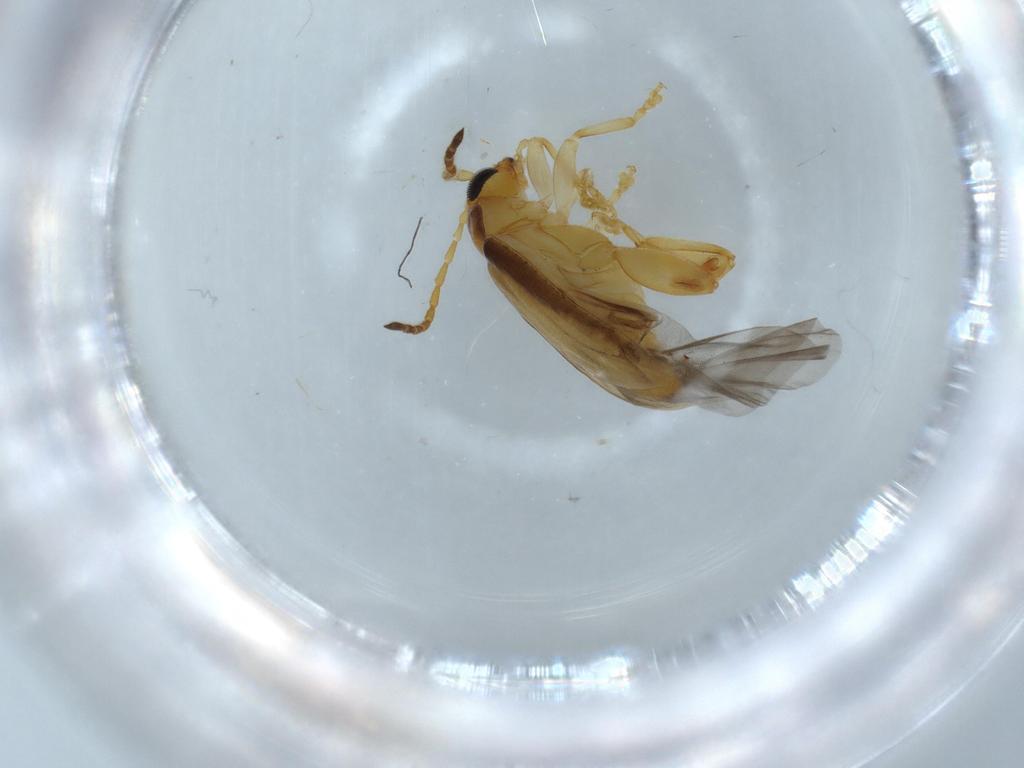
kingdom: Animalia
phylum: Arthropoda
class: Insecta
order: Coleoptera
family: Chrysomelidae
